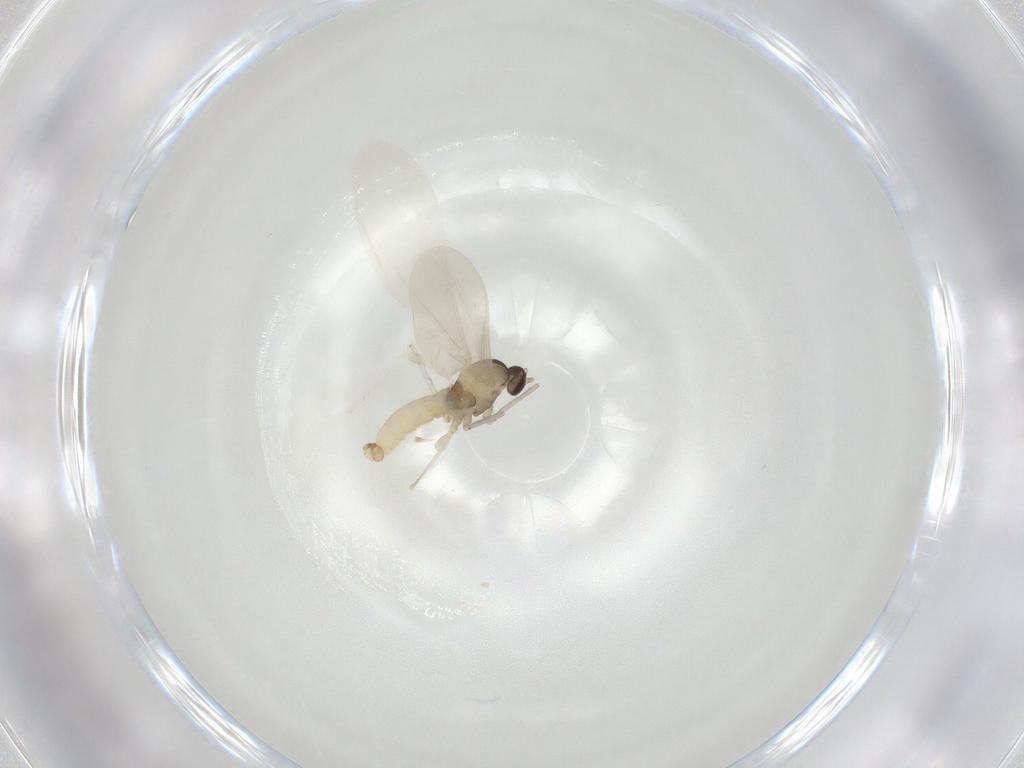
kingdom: Animalia
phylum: Arthropoda
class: Insecta
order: Diptera
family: Cecidomyiidae
